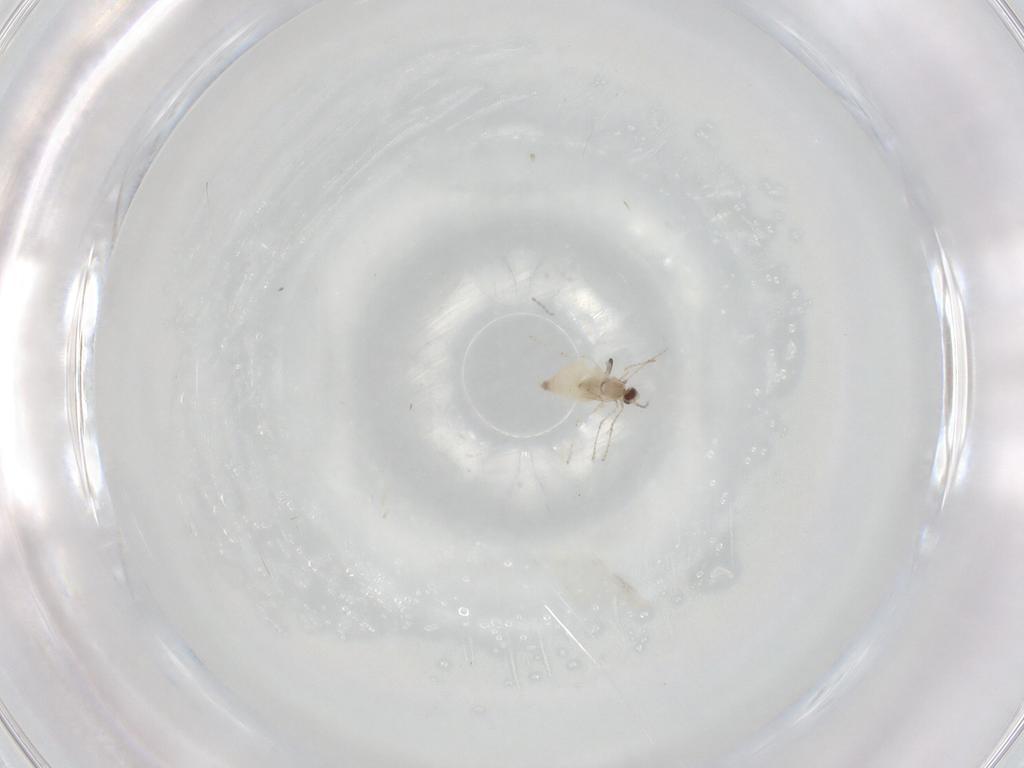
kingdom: Animalia
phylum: Arthropoda
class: Insecta
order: Diptera
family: Cecidomyiidae
